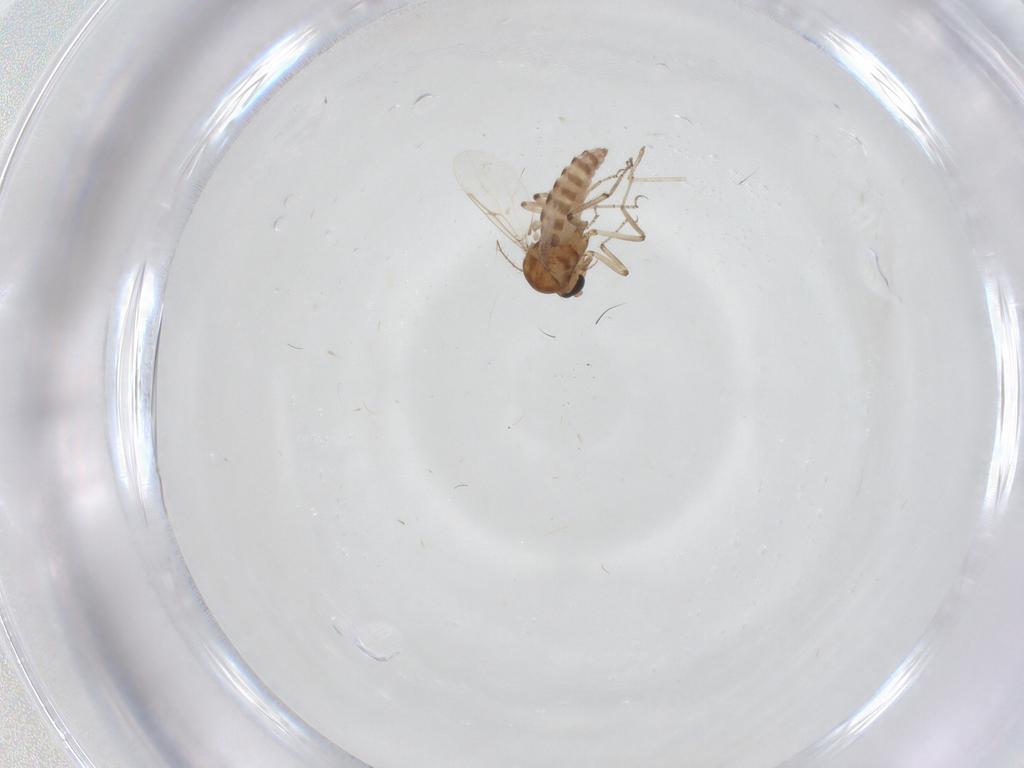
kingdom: Animalia
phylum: Arthropoda
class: Insecta
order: Diptera
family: Ceratopogonidae
